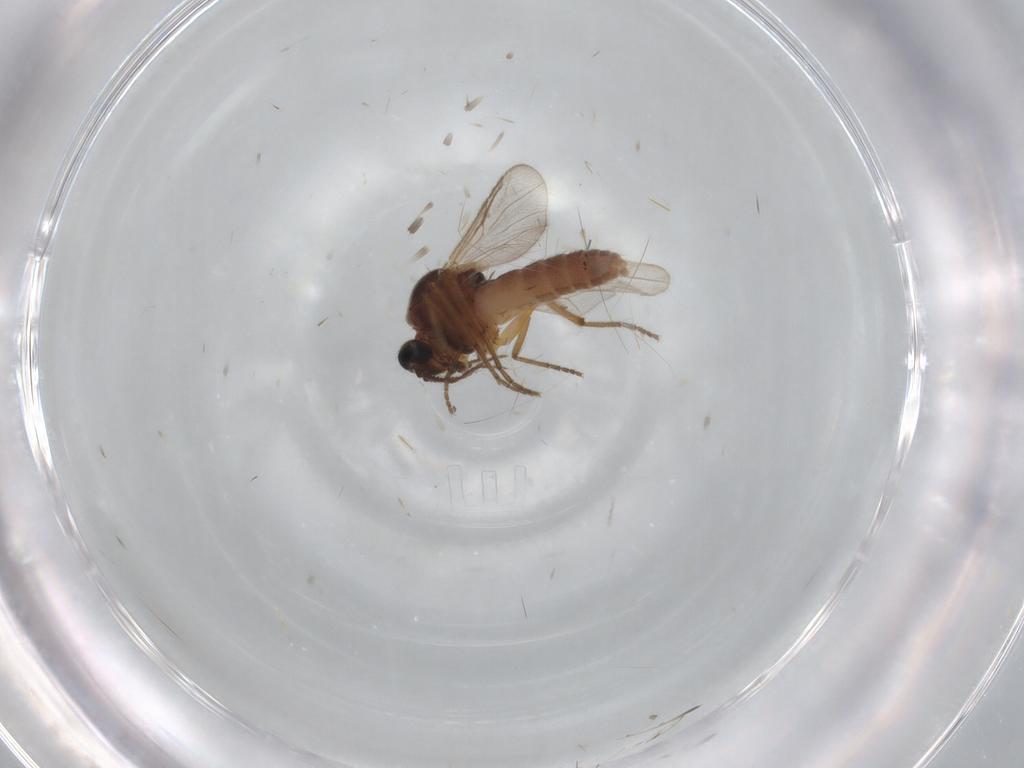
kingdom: Animalia
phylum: Arthropoda
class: Insecta
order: Diptera
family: Ceratopogonidae
